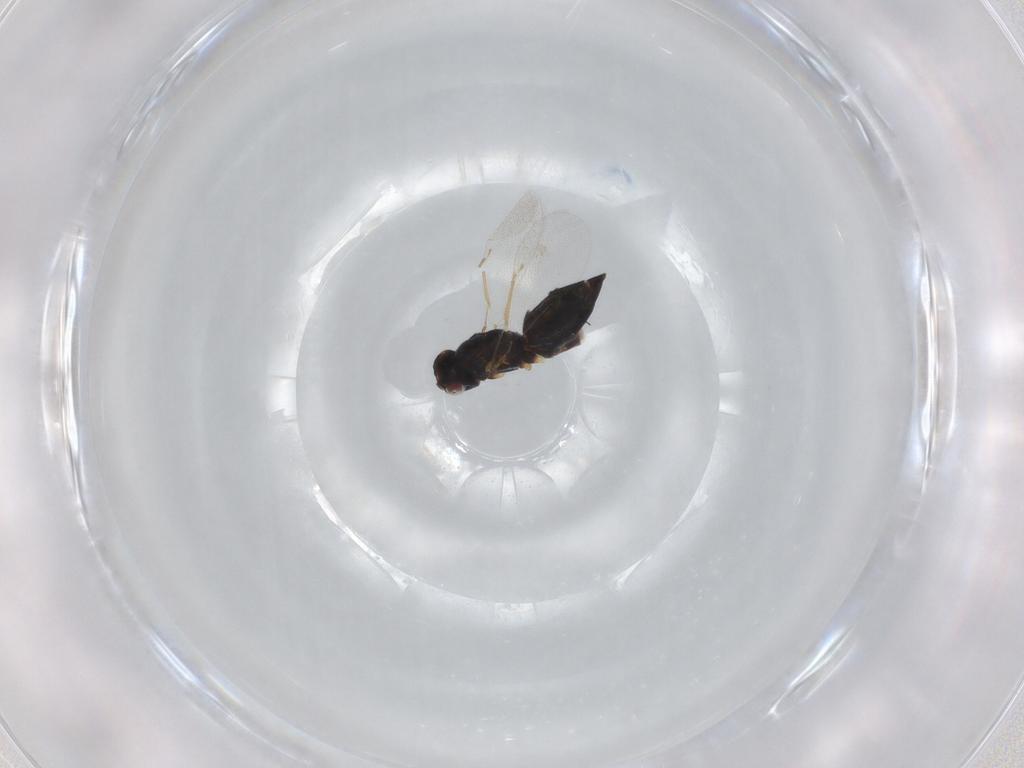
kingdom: Animalia
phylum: Arthropoda
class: Insecta
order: Hymenoptera
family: Eulophidae
